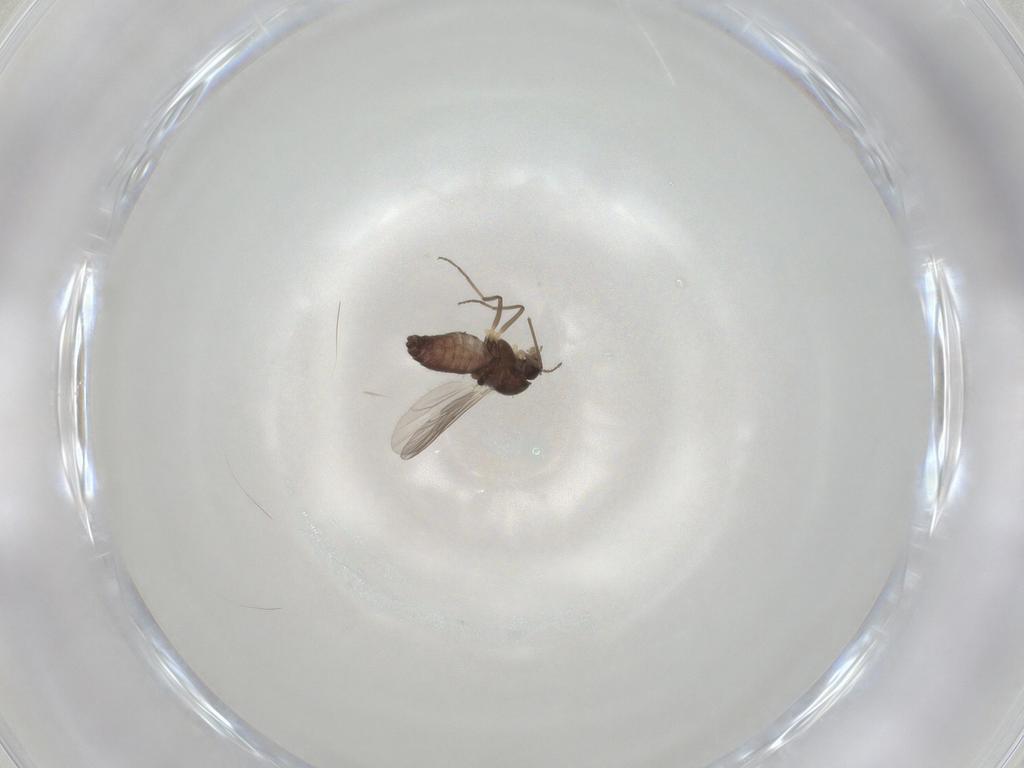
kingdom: Animalia
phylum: Arthropoda
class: Insecta
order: Diptera
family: Chironomidae
